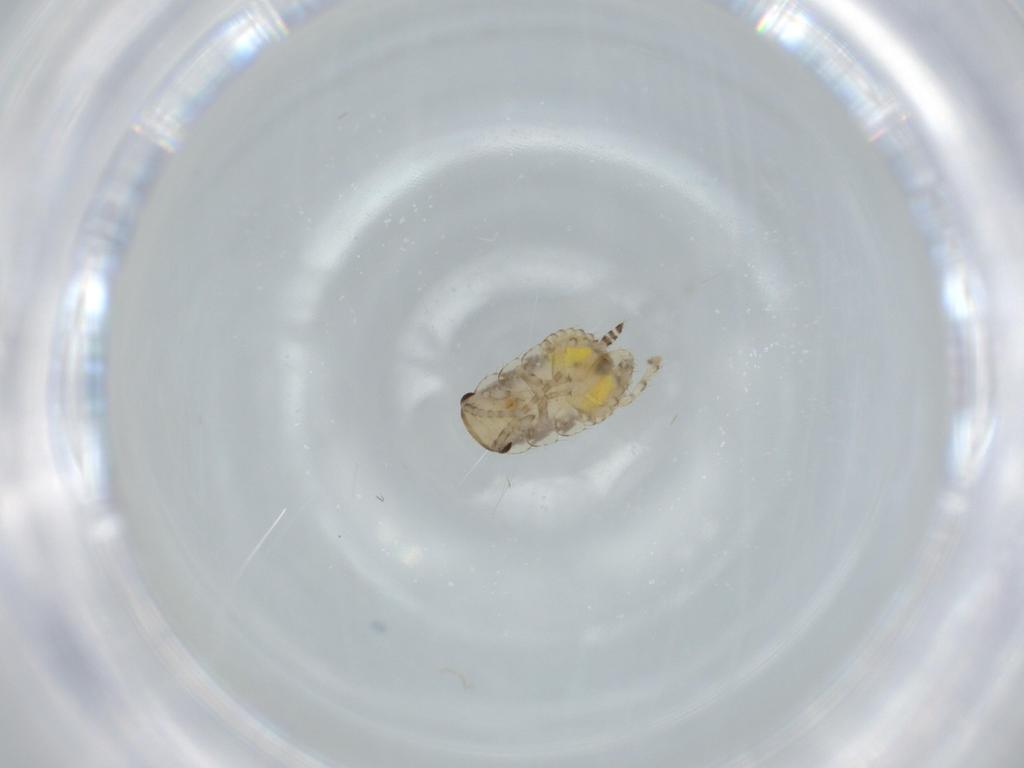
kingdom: Animalia
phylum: Arthropoda
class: Insecta
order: Blattodea
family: Ectobiidae
